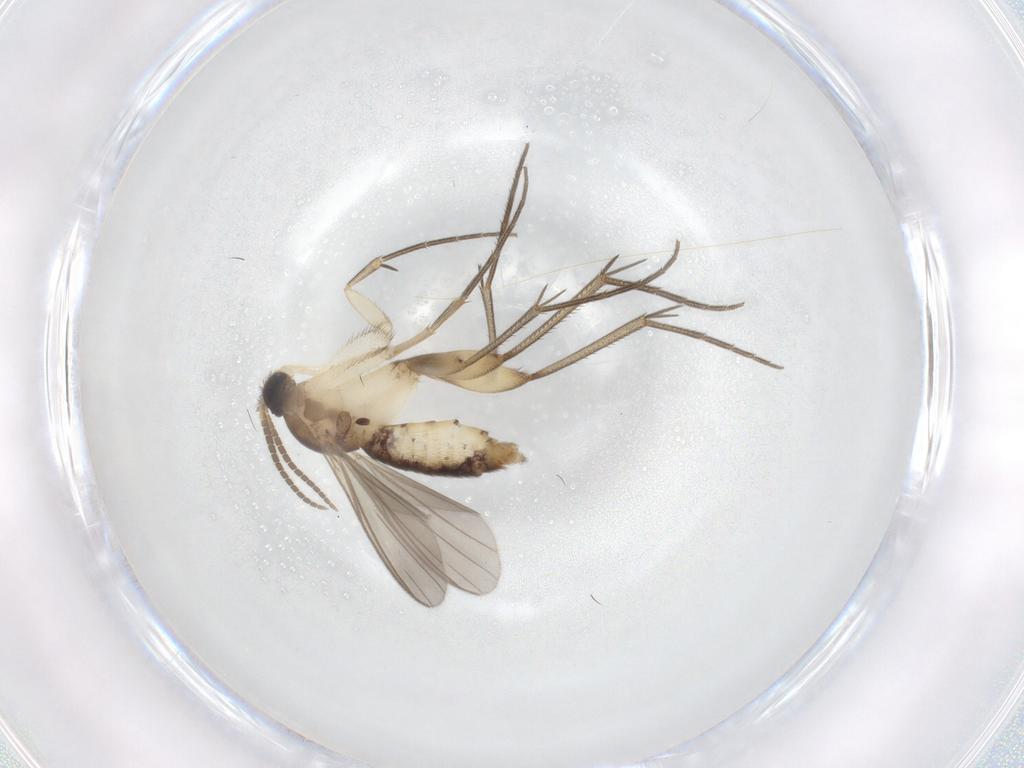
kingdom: Animalia
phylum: Arthropoda
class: Insecta
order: Diptera
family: Mycetophilidae
